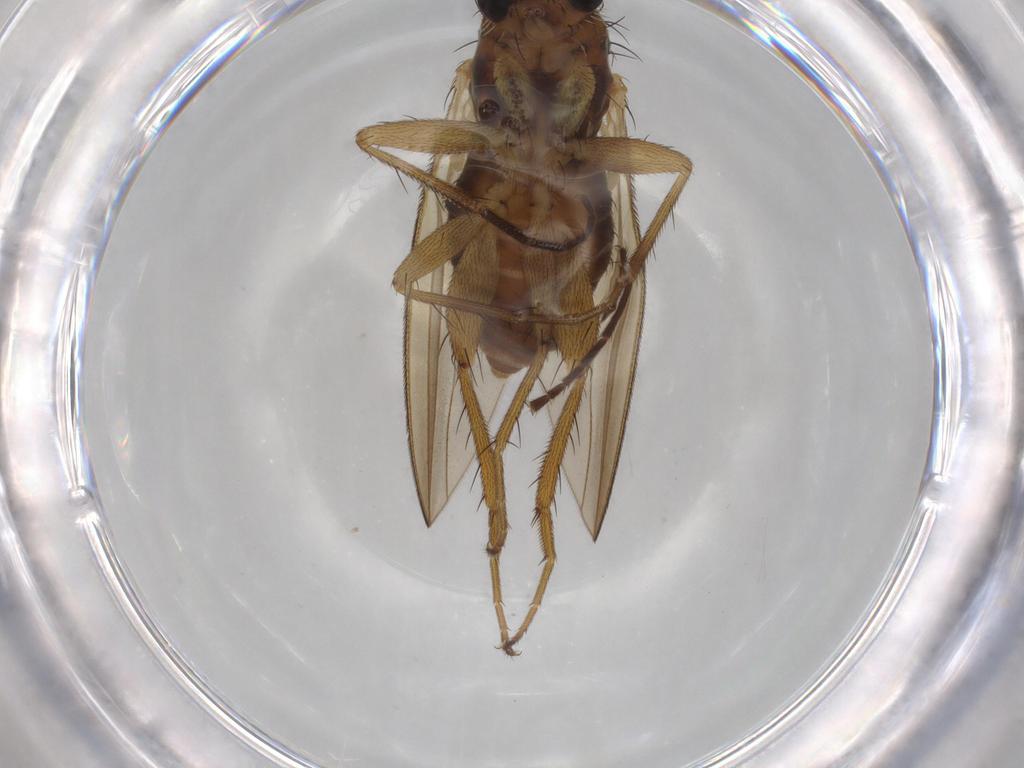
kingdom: Animalia
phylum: Arthropoda
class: Insecta
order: Diptera
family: Lonchopteridae
